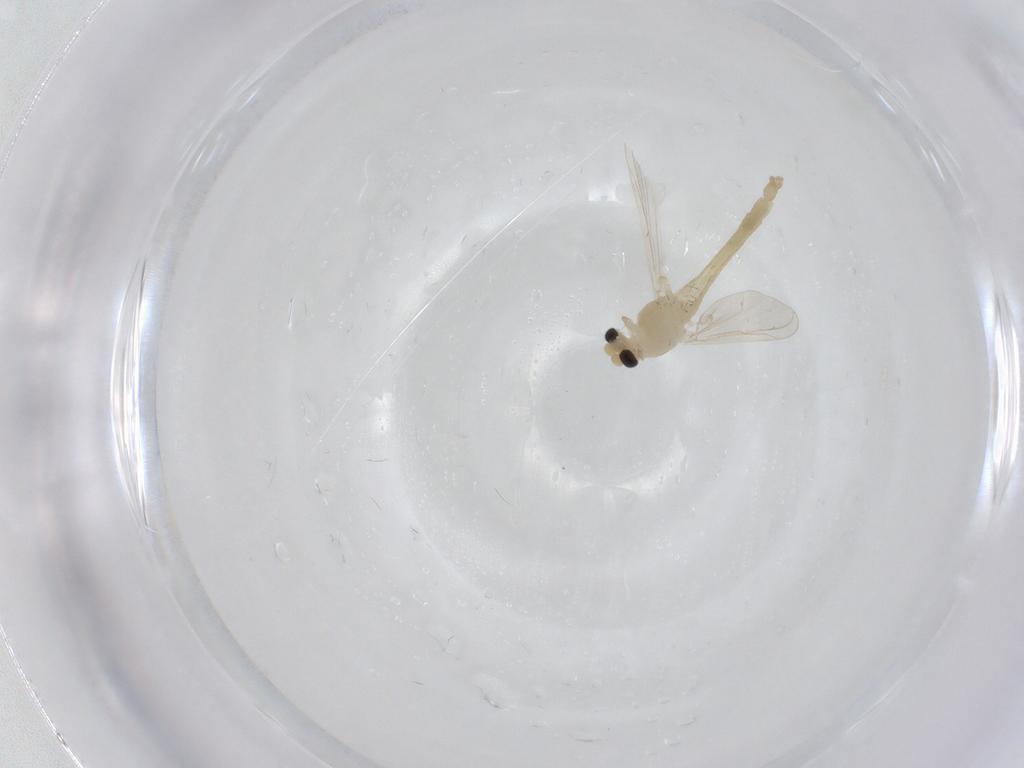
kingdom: Animalia
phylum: Arthropoda
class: Insecta
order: Diptera
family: Chironomidae
